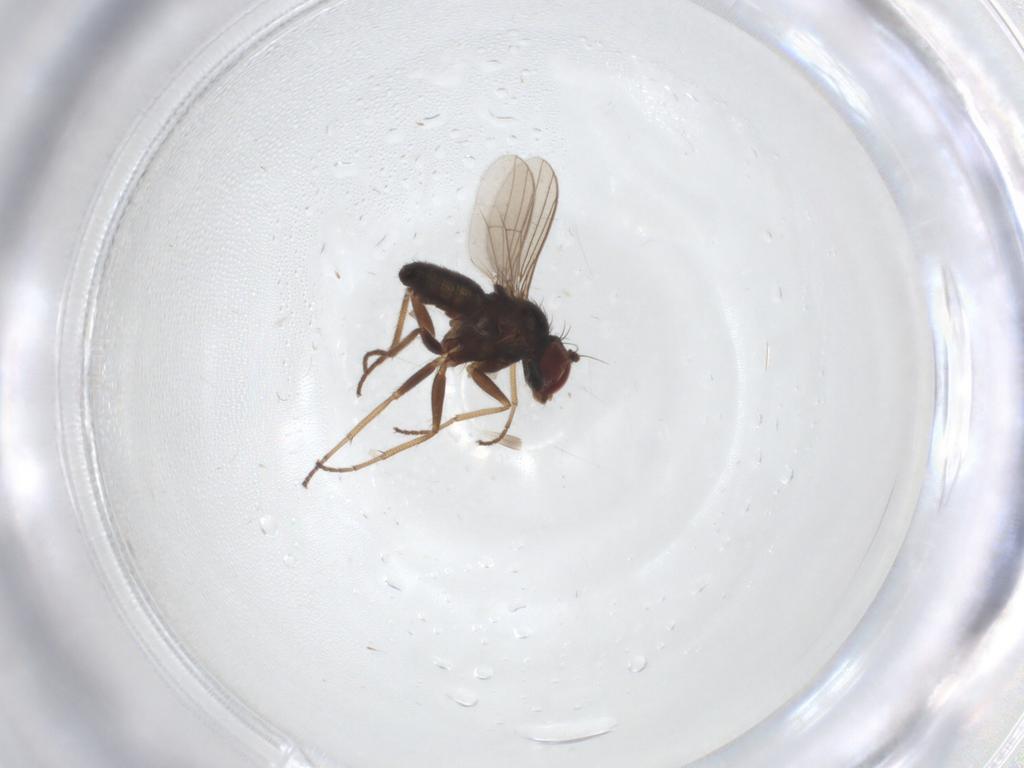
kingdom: Animalia
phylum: Arthropoda
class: Insecta
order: Diptera
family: Dolichopodidae
